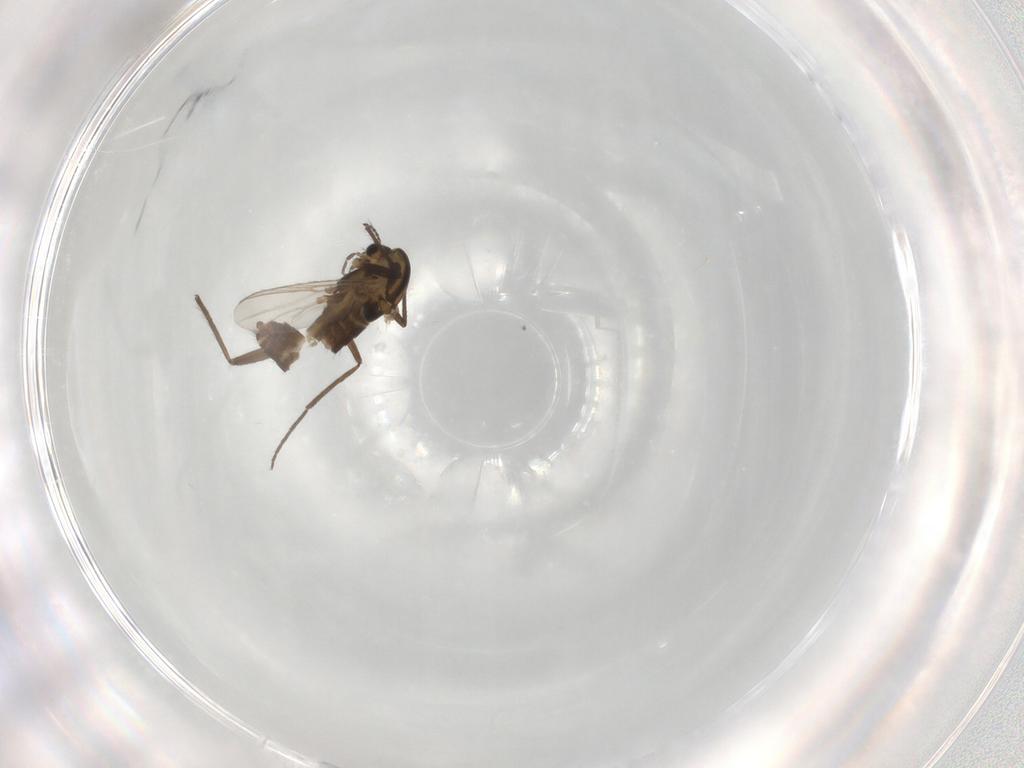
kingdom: Animalia
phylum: Arthropoda
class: Insecta
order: Diptera
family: Chironomidae
